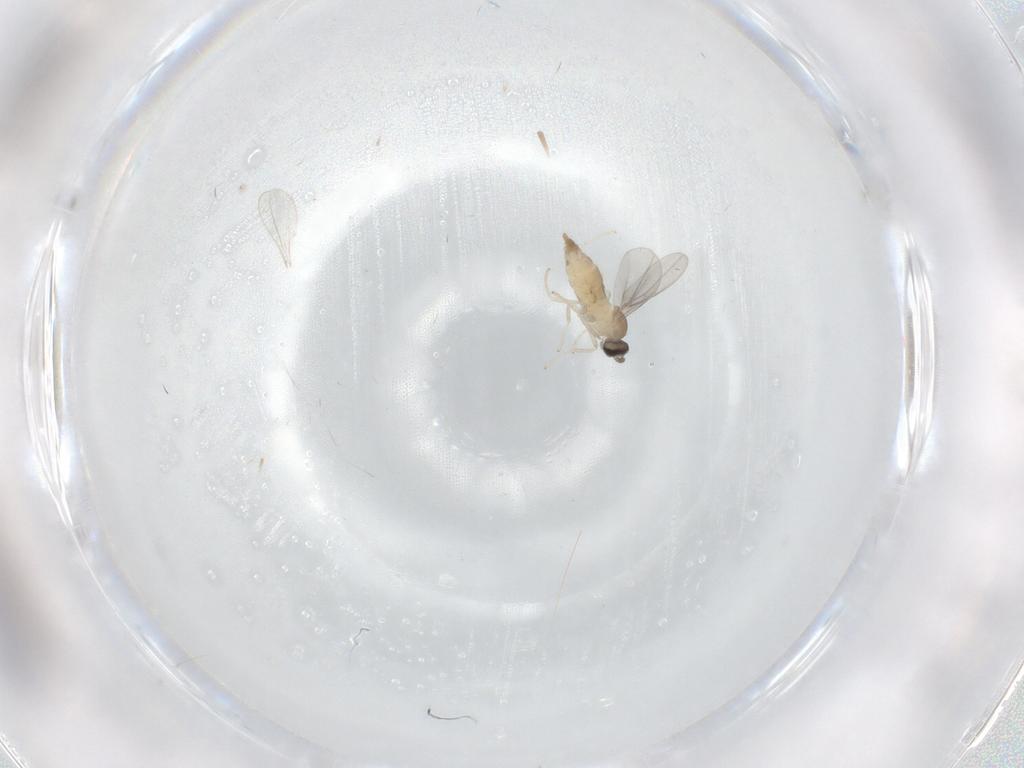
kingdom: Animalia
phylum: Arthropoda
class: Insecta
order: Diptera
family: Cecidomyiidae
